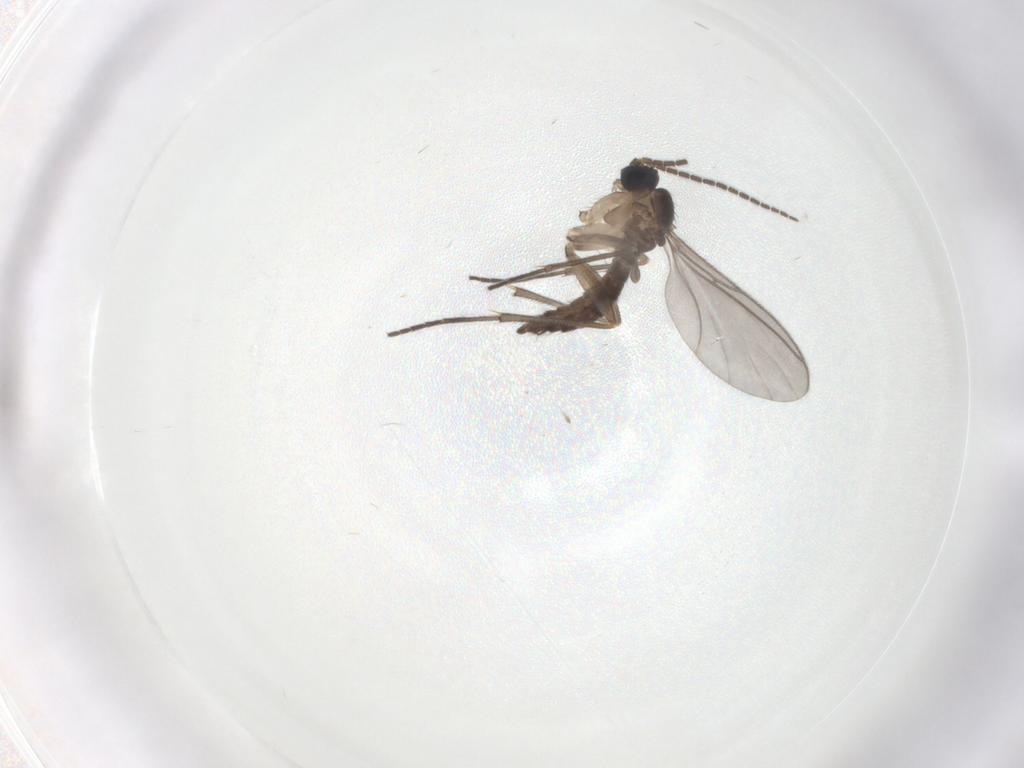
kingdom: Animalia
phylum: Arthropoda
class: Insecta
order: Diptera
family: Sciaridae
